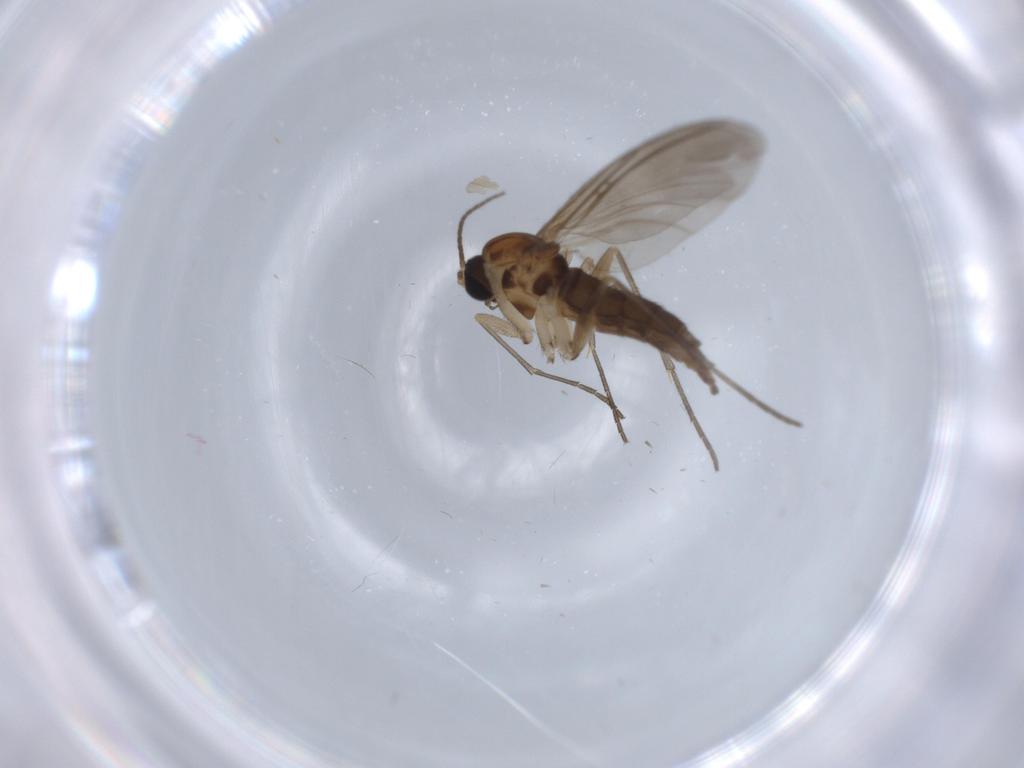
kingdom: Animalia
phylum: Arthropoda
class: Insecta
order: Diptera
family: Sciaridae
